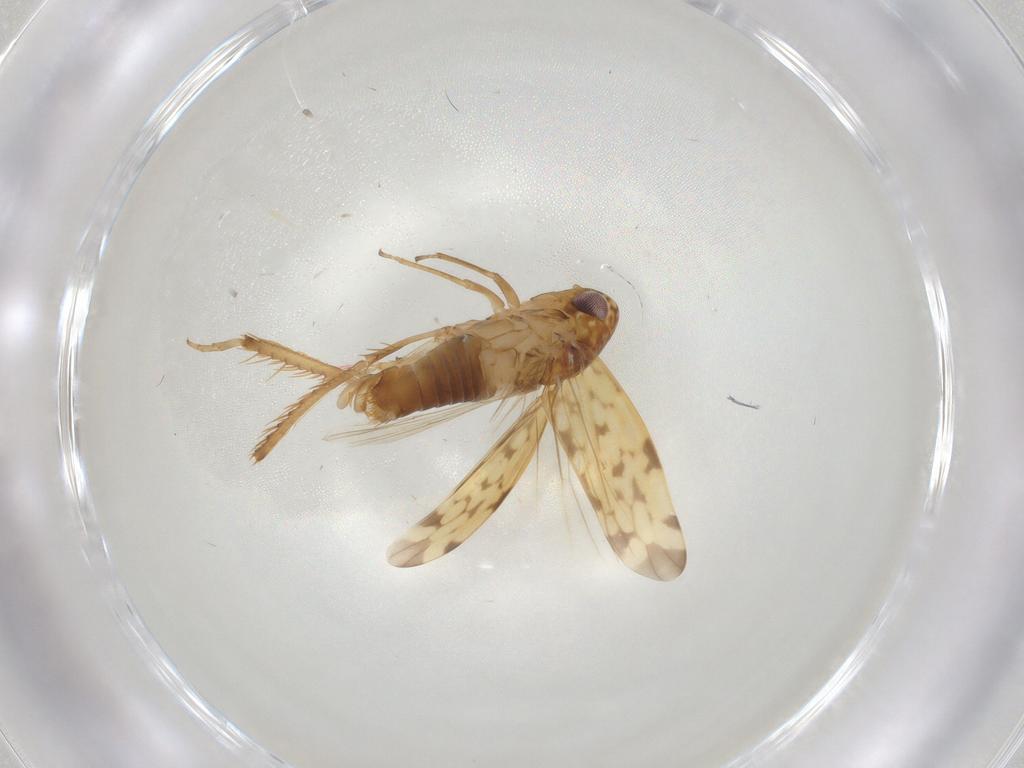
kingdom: Animalia
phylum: Arthropoda
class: Insecta
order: Hemiptera
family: Cicadellidae
